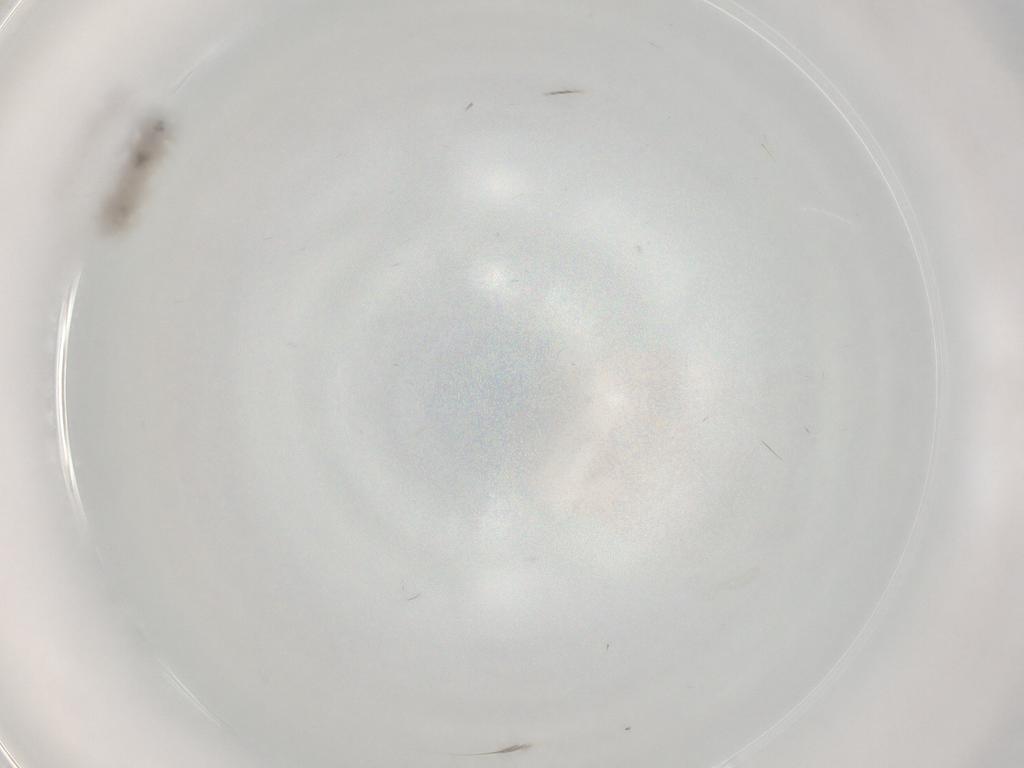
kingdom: Animalia
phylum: Arthropoda
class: Insecta
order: Diptera
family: Chironomidae
